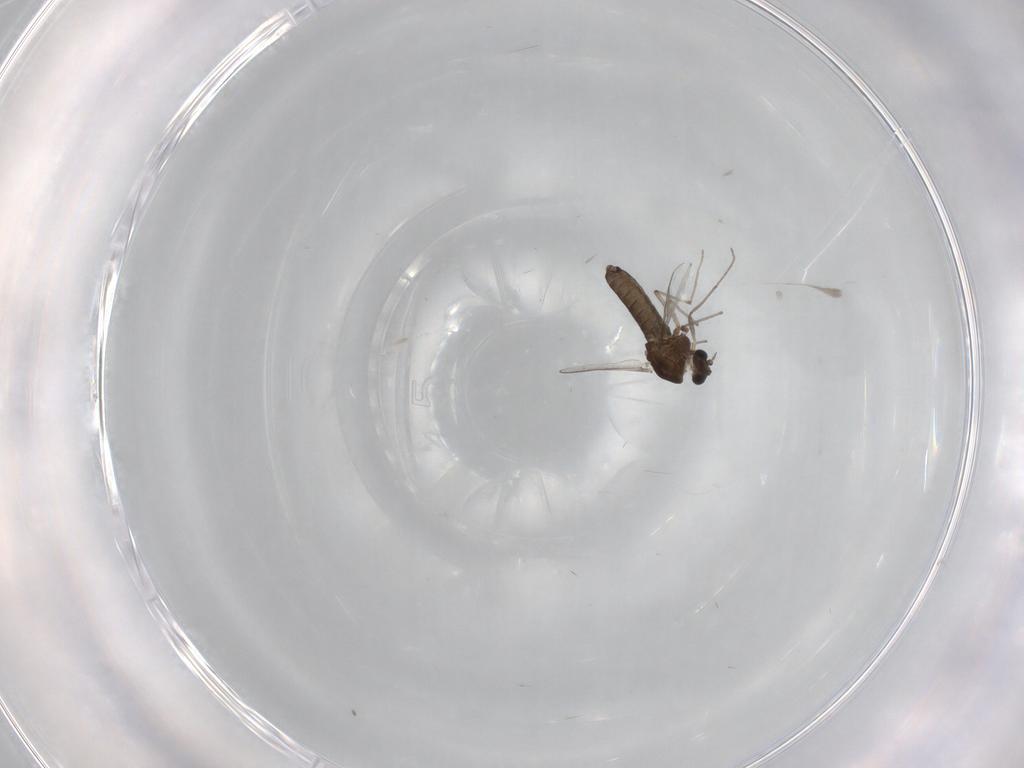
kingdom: Animalia
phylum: Arthropoda
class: Insecta
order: Diptera
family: Chironomidae
